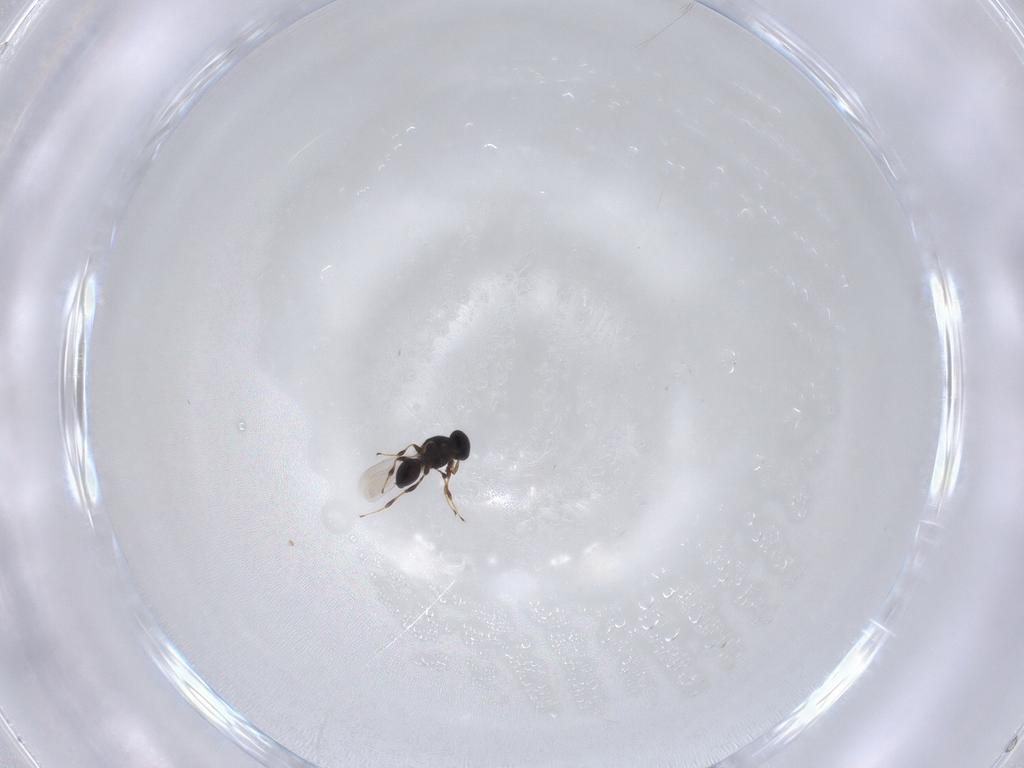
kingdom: Animalia
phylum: Arthropoda
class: Insecta
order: Hymenoptera
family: Platygastridae
